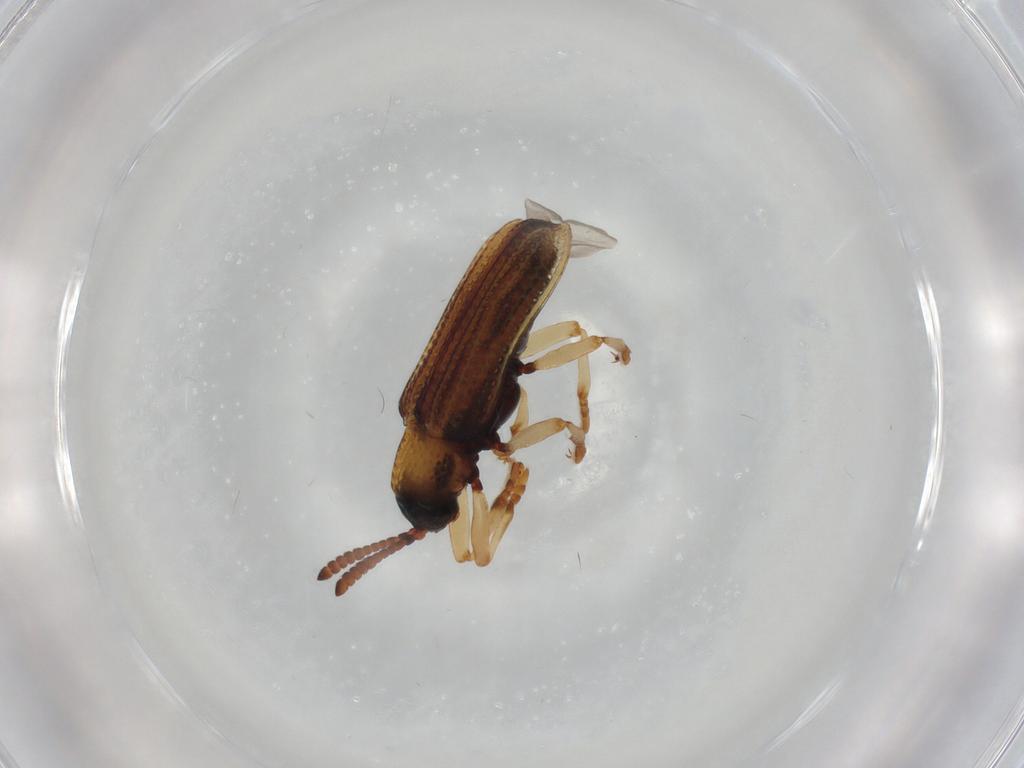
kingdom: Animalia
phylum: Arthropoda
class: Insecta
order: Coleoptera
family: Chrysomelidae
